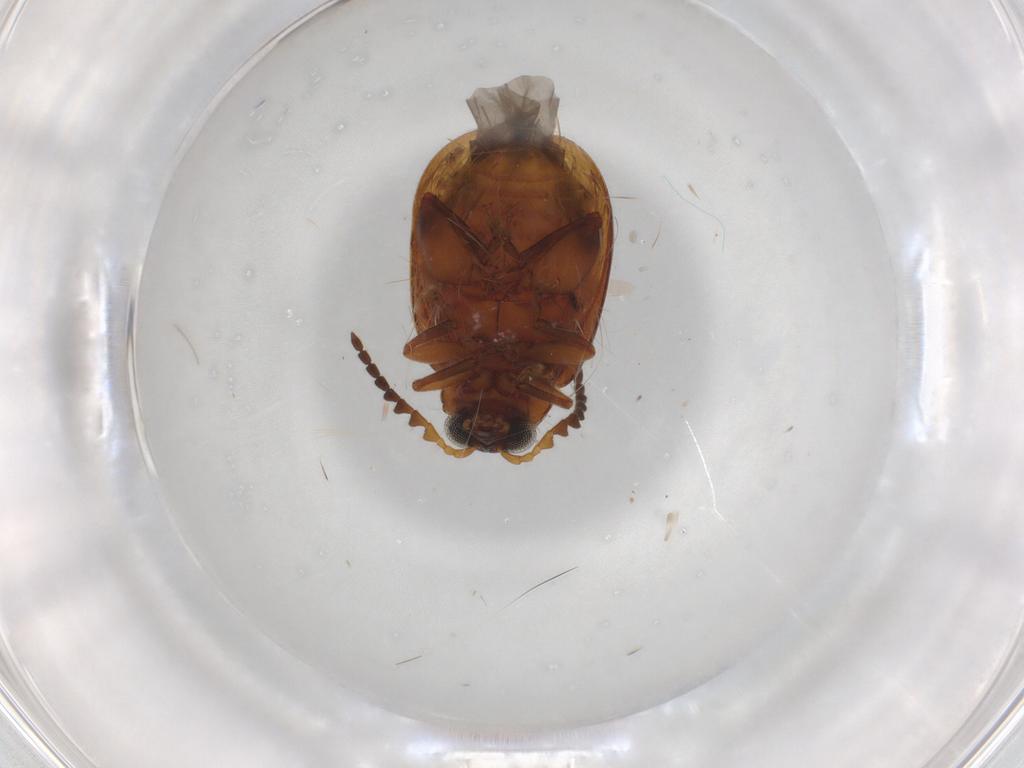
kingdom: Animalia
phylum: Arthropoda
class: Insecta
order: Coleoptera
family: Chrysomelidae
